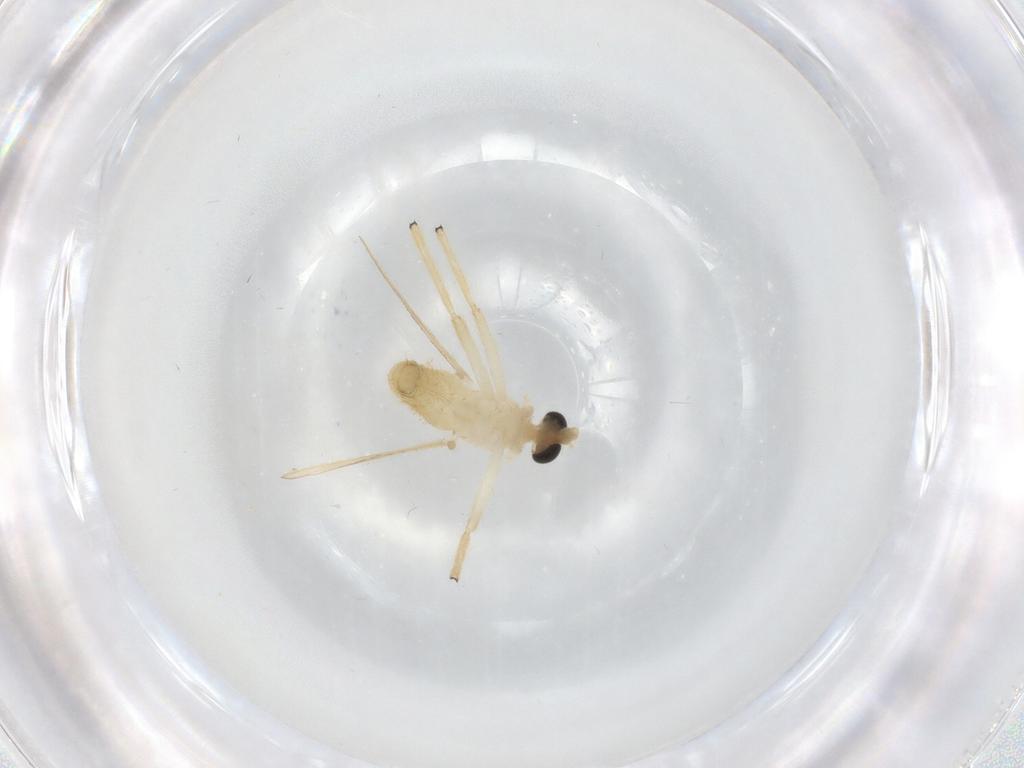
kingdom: Animalia
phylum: Arthropoda
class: Insecta
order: Diptera
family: Chironomidae
